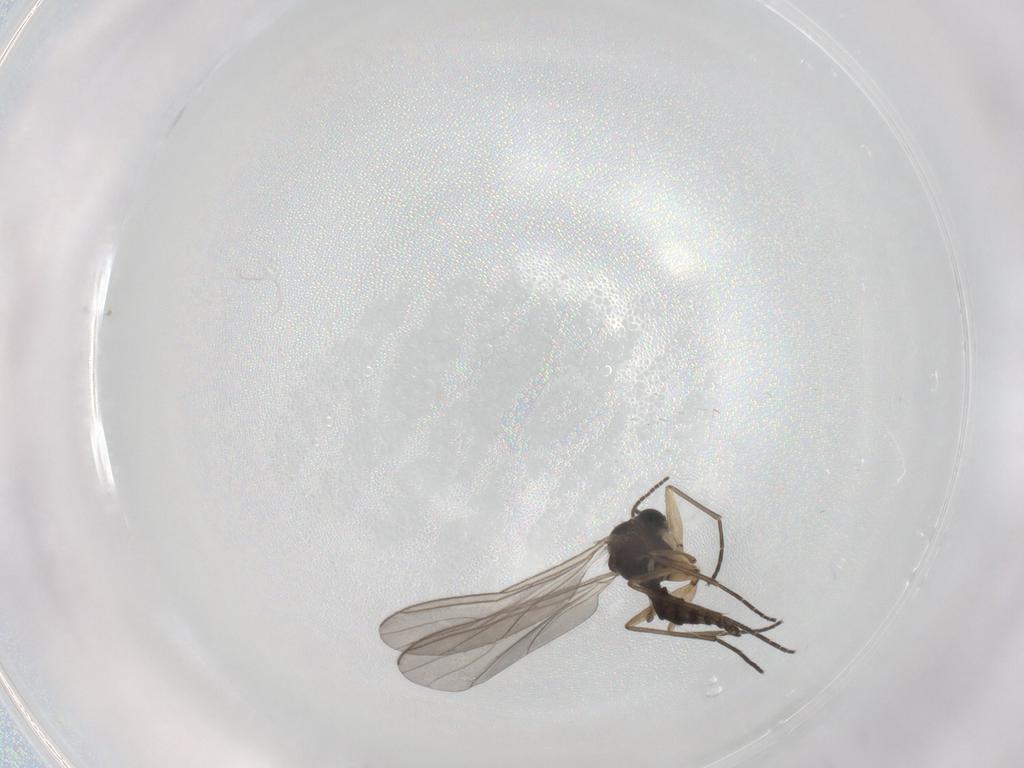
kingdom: Animalia
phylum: Arthropoda
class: Insecta
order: Diptera
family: Sciaridae
